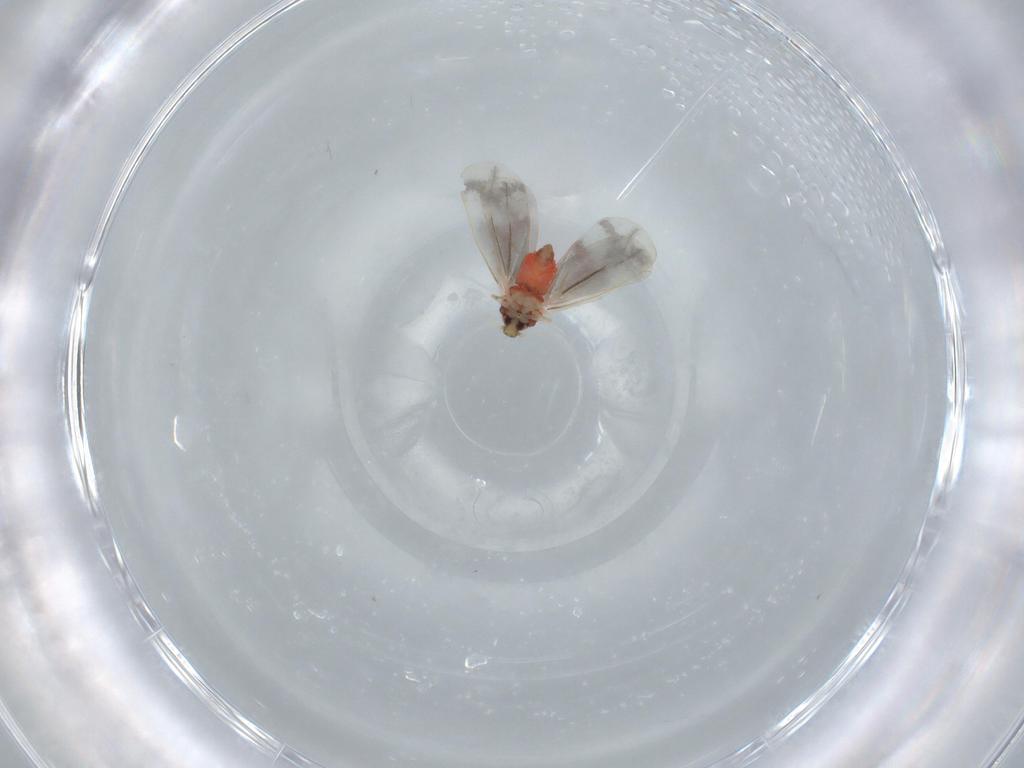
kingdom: Animalia
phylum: Arthropoda
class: Insecta
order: Hemiptera
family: Aleyrodidae
